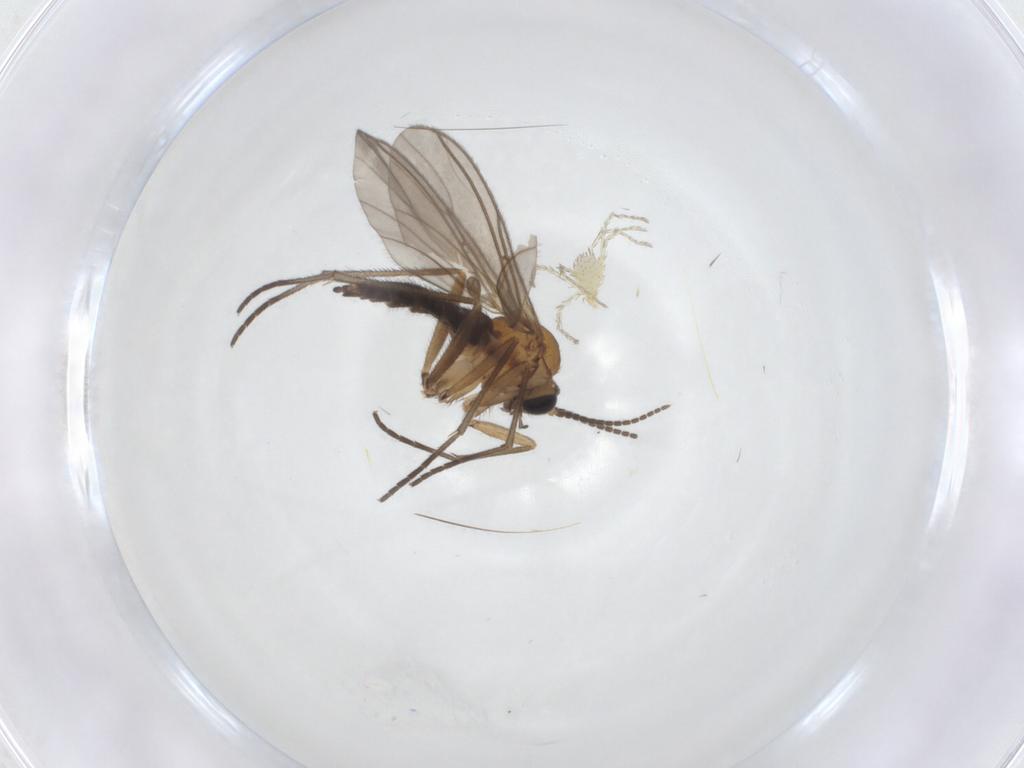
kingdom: Animalia
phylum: Arthropoda
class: Insecta
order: Diptera
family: Sciaridae
